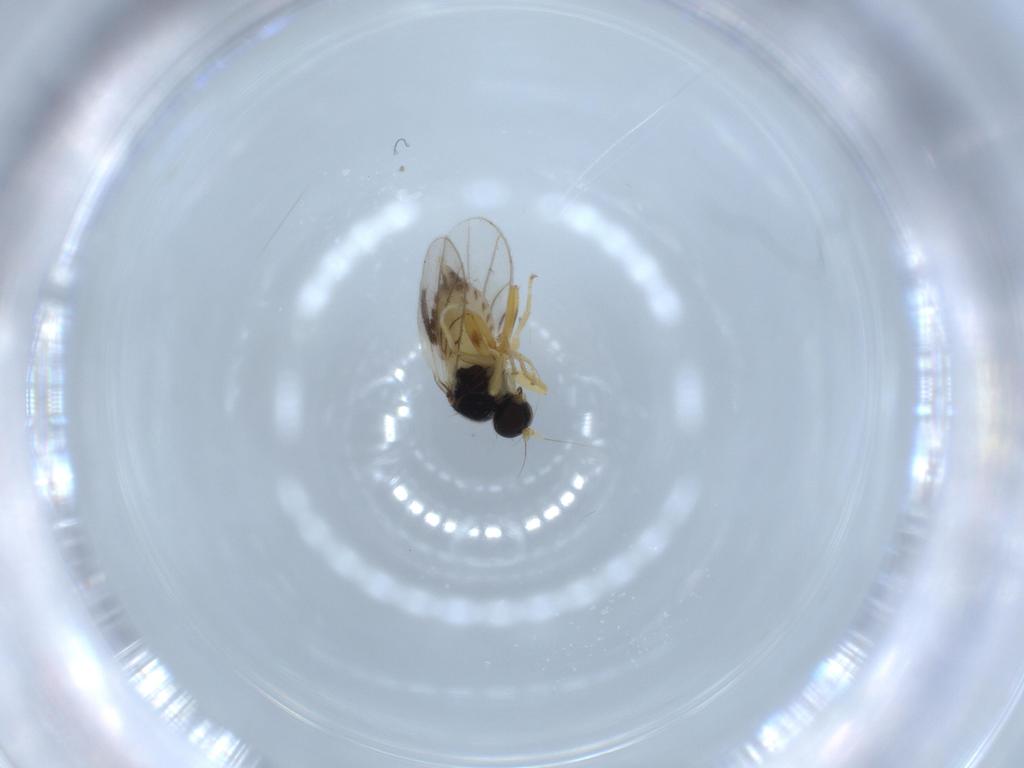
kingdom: Animalia
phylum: Arthropoda
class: Insecta
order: Diptera
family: Hybotidae
